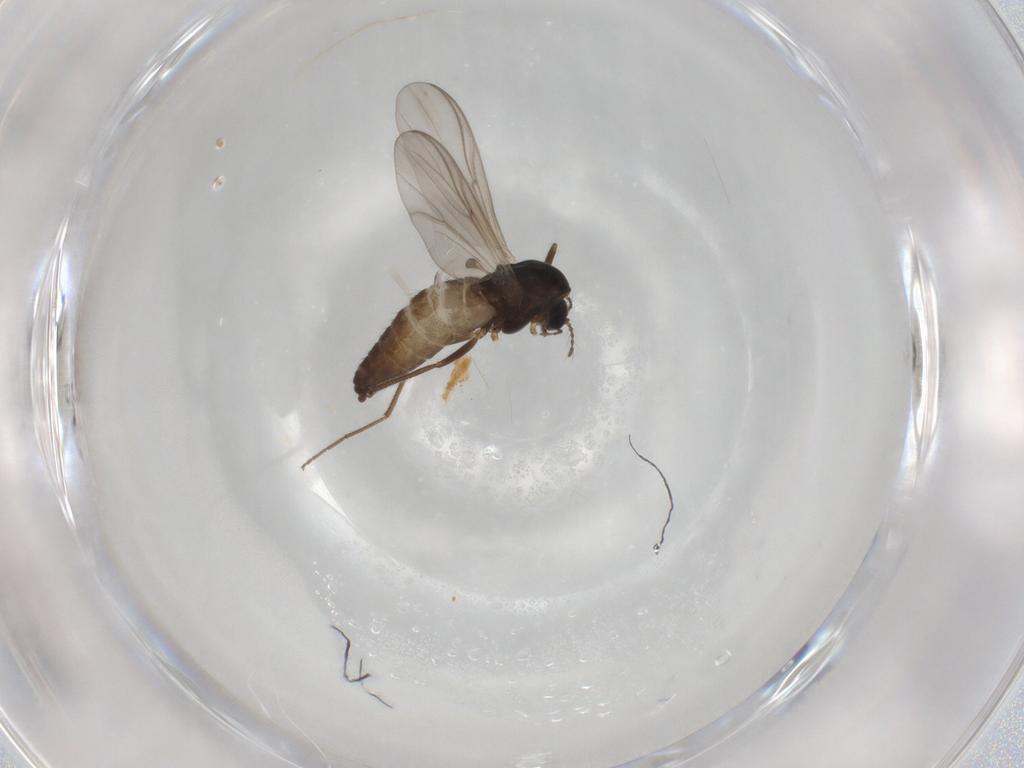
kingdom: Animalia
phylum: Arthropoda
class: Insecta
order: Diptera
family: Chironomidae
